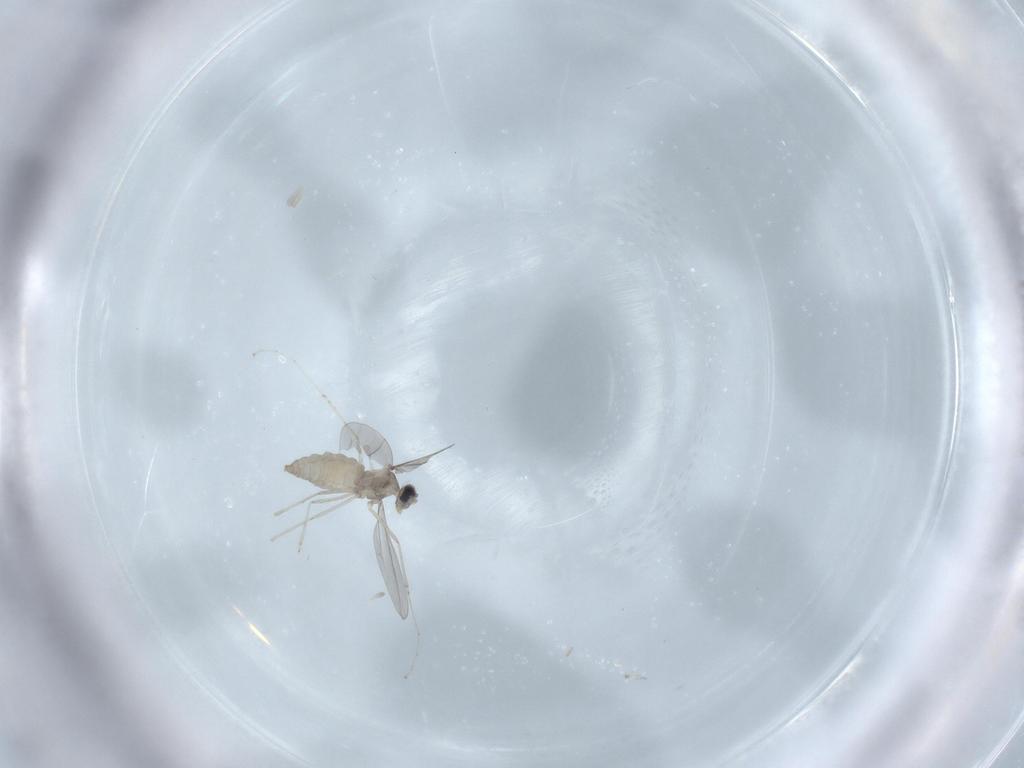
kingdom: Animalia
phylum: Arthropoda
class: Insecta
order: Diptera
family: Cecidomyiidae
